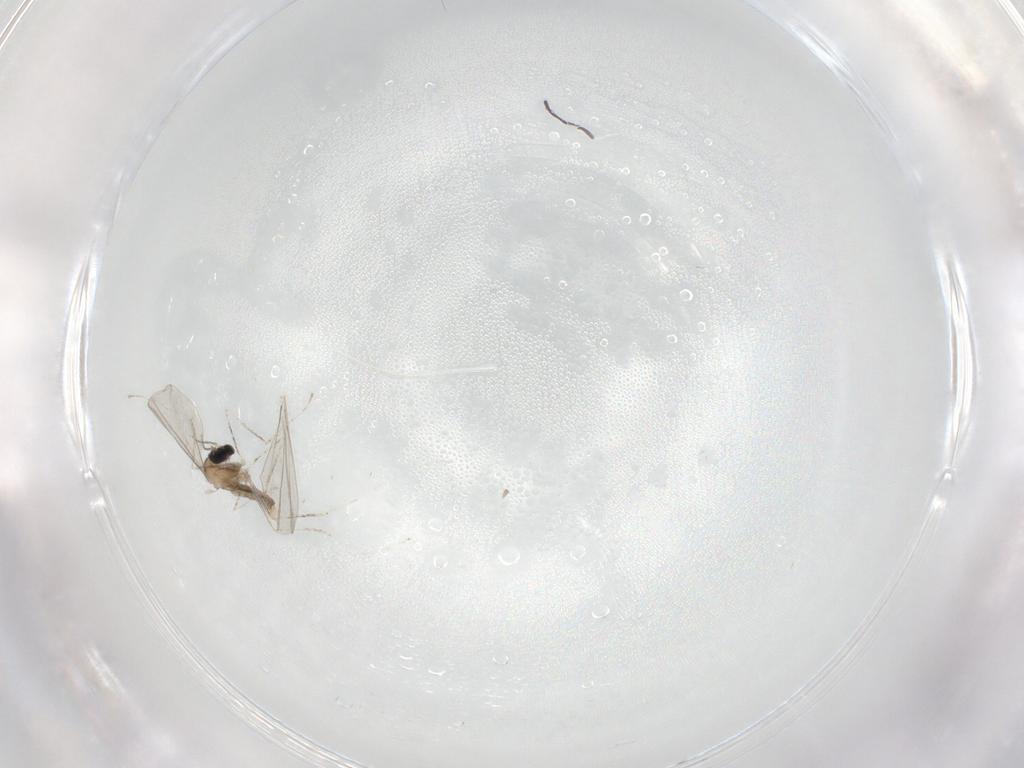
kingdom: Animalia
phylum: Arthropoda
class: Insecta
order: Diptera
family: Cecidomyiidae
